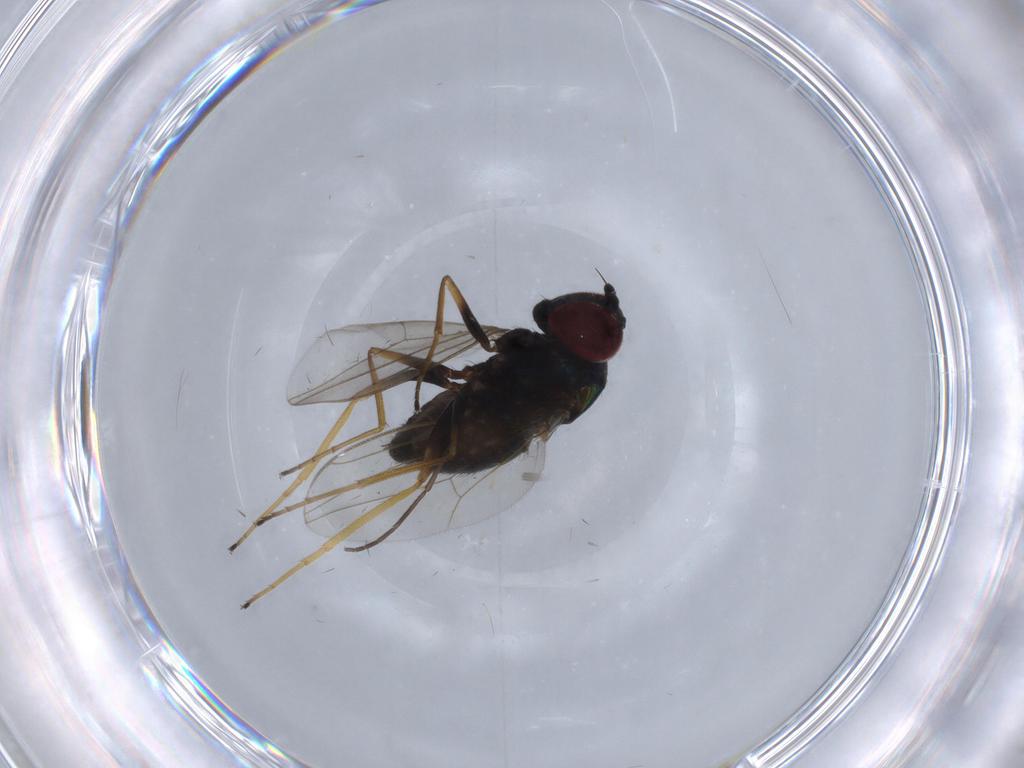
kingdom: Animalia
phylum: Arthropoda
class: Insecta
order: Diptera
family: Dolichopodidae
